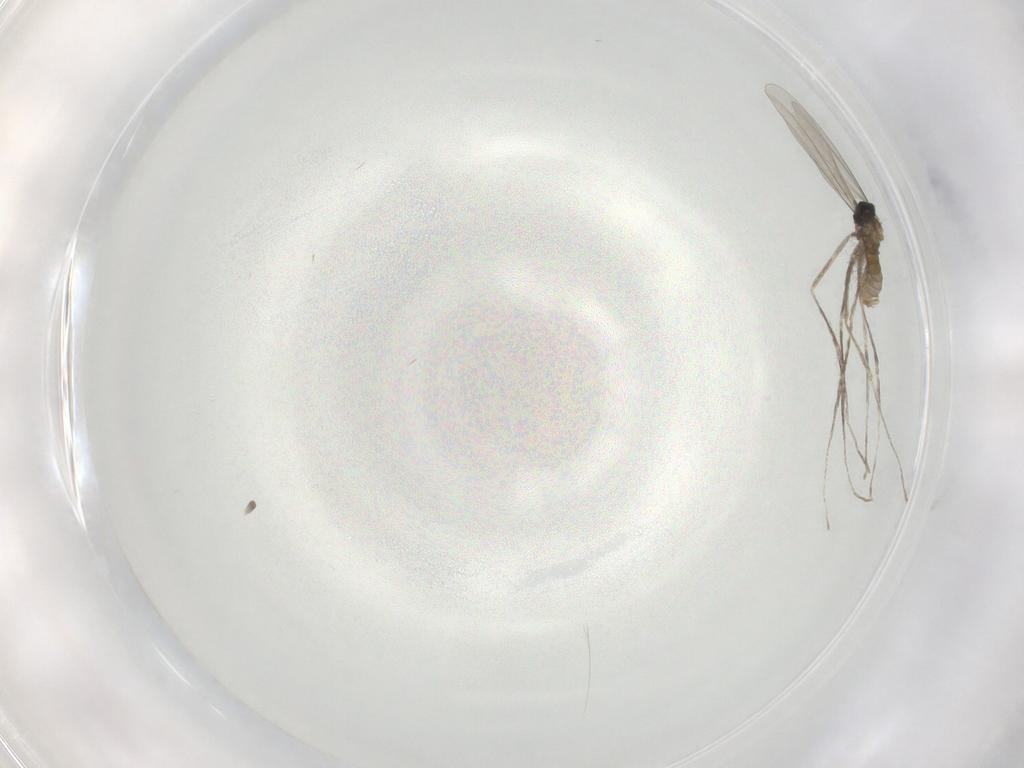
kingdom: Animalia
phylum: Arthropoda
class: Insecta
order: Diptera
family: Cecidomyiidae
